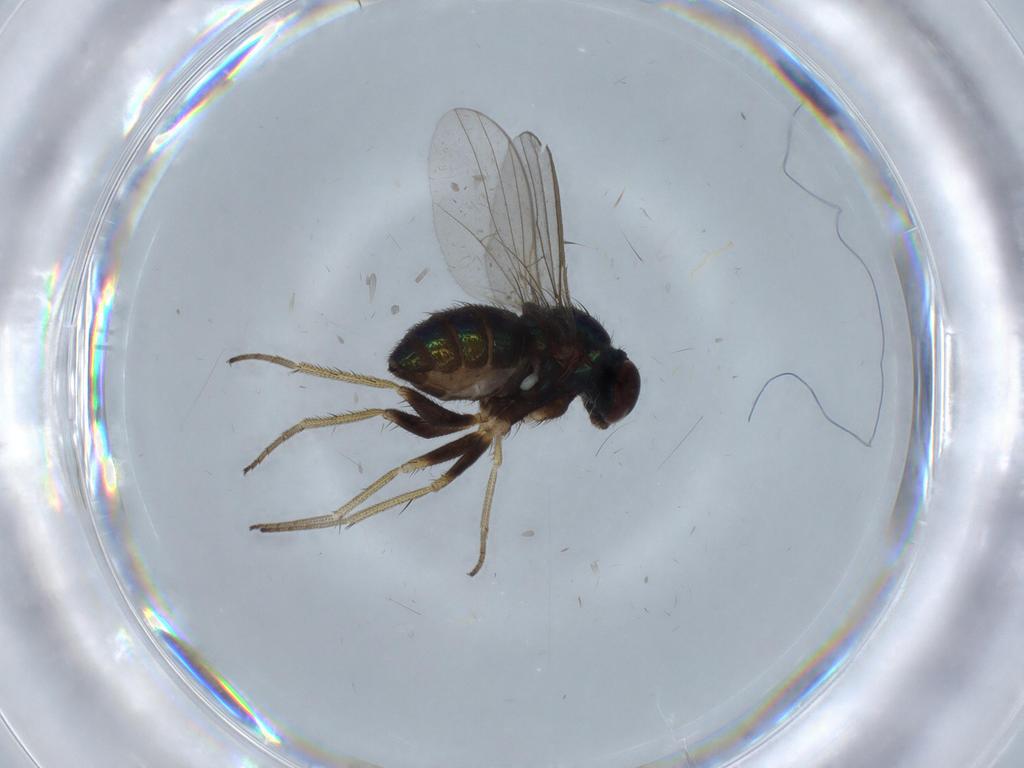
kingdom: Animalia
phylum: Arthropoda
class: Insecta
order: Diptera
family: Dolichopodidae
